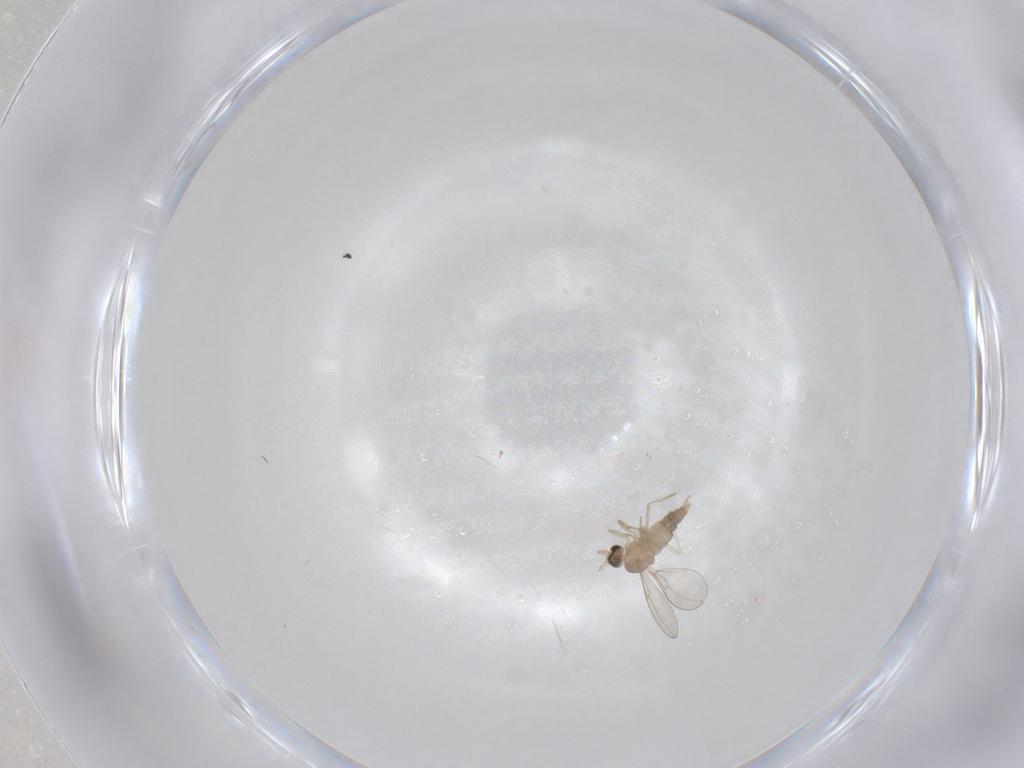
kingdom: Animalia
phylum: Arthropoda
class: Insecta
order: Diptera
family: Cecidomyiidae
